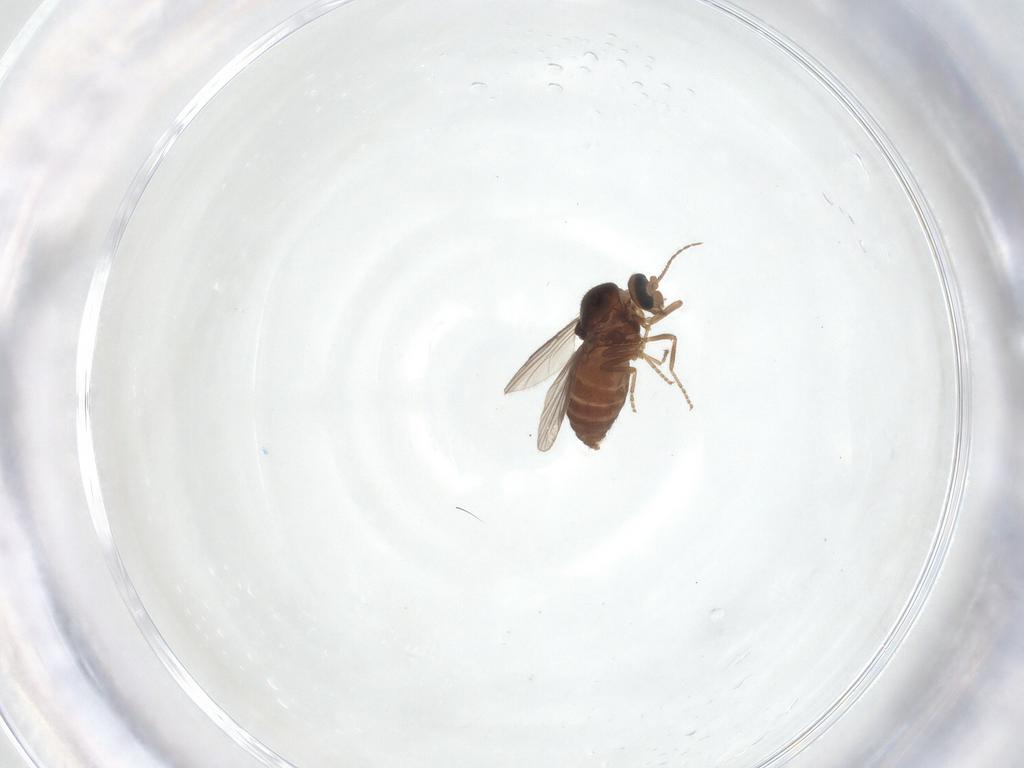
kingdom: Animalia
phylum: Arthropoda
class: Insecta
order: Diptera
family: Ceratopogonidae
